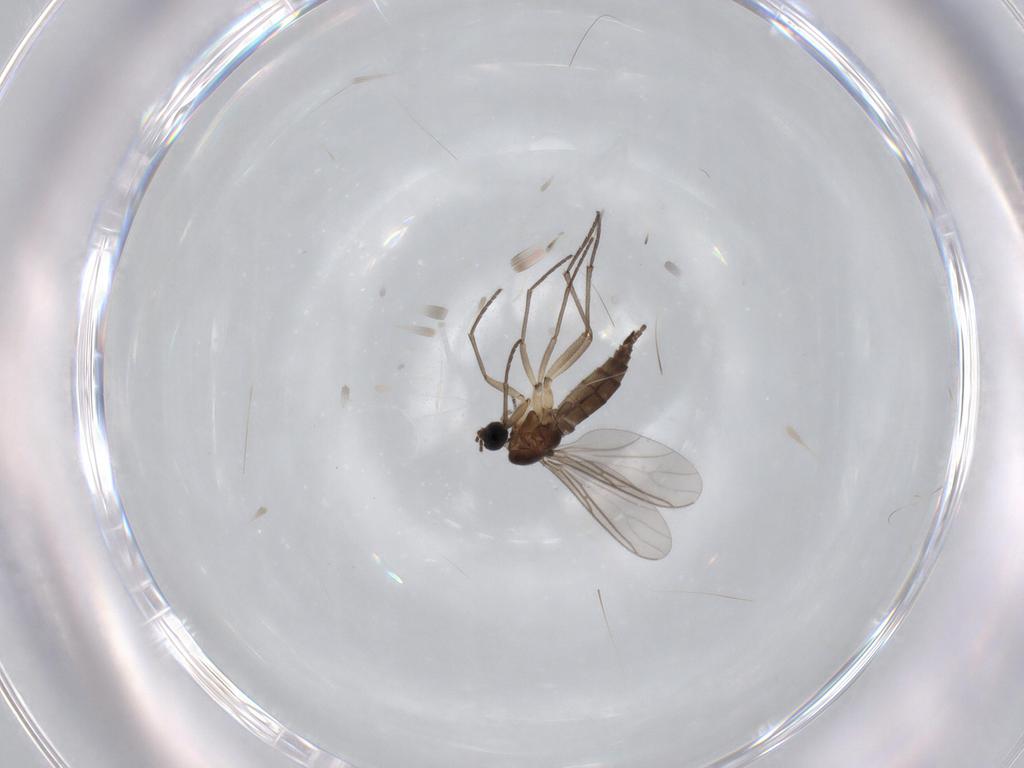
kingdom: Animalia
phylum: Arthropoda
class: Insecta
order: Diptera
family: Sciaridae
